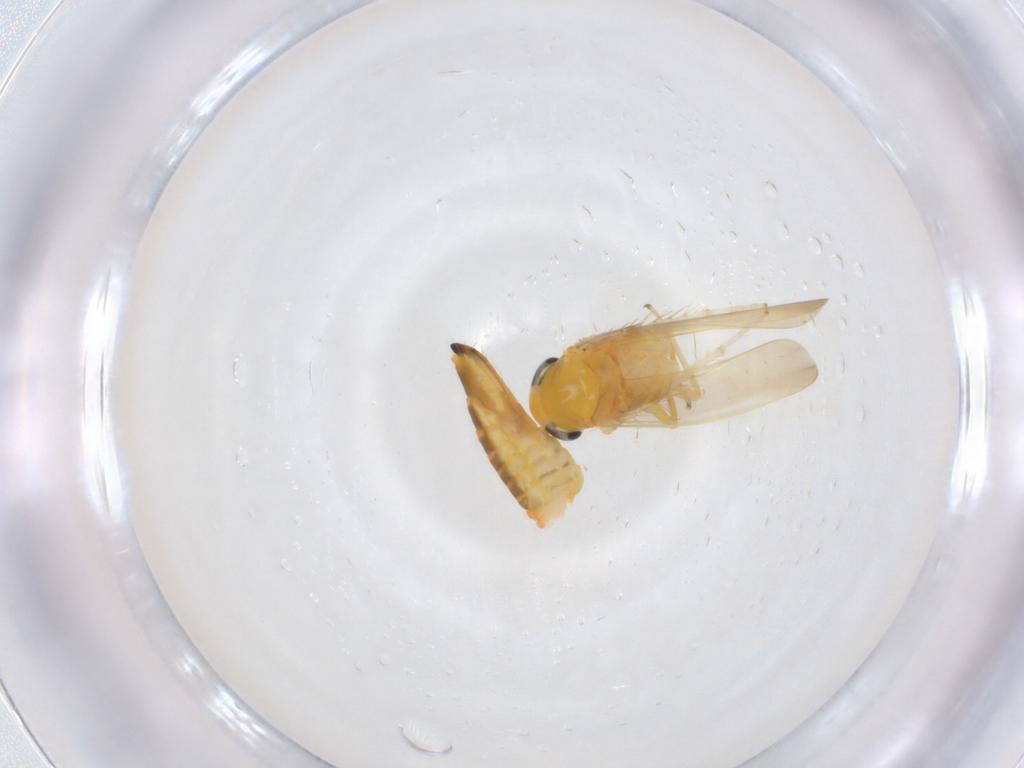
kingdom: Animalia
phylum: Arthropoda
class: Insecta
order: Hemiptera
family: Cicadellidae
